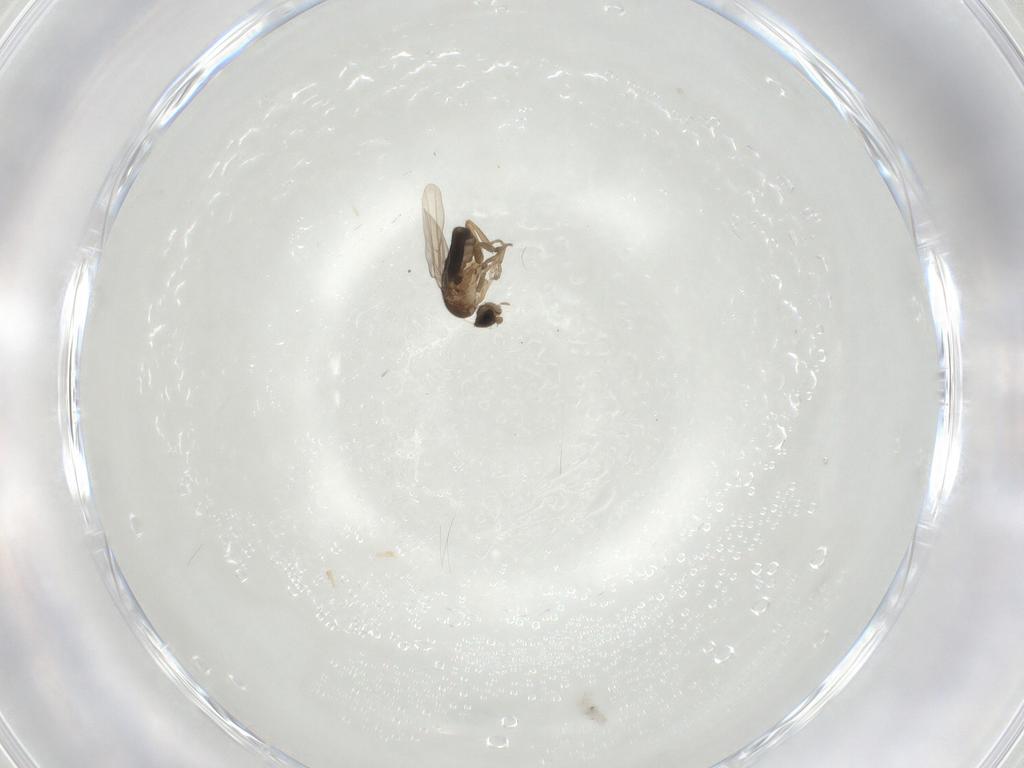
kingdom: Animalia
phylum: Arthropoda
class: Insecta
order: Diptera
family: Phoridae
